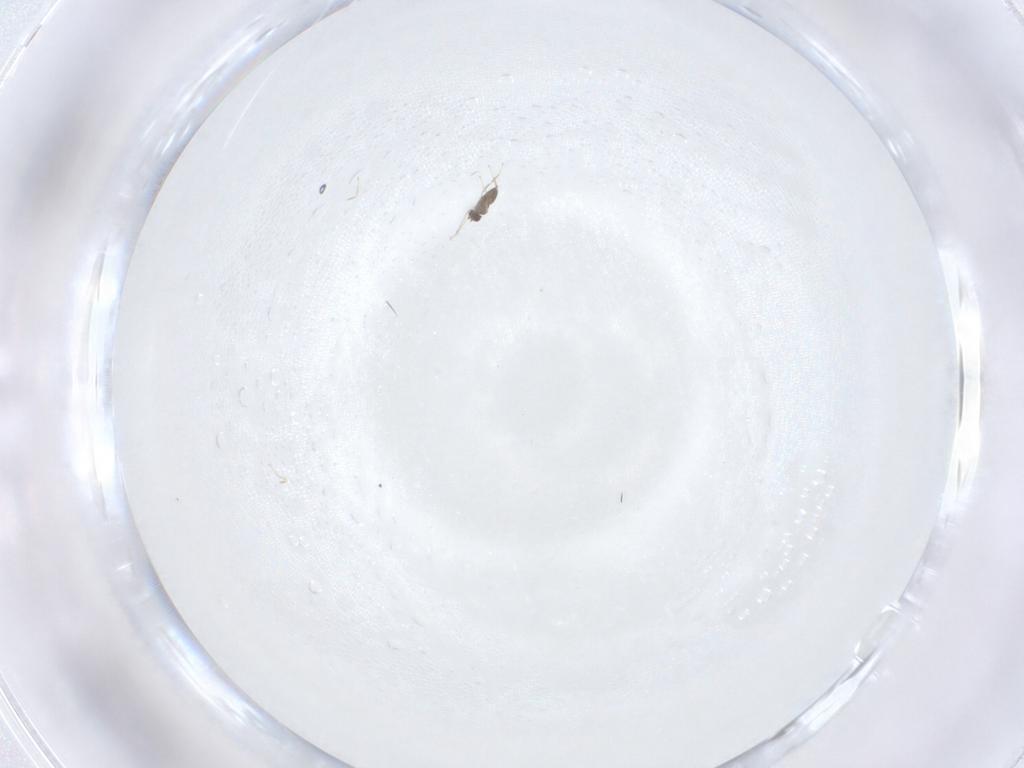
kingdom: Animalia
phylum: Arthropoda
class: Insecta
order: Hymenoptera
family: Mymaridae
